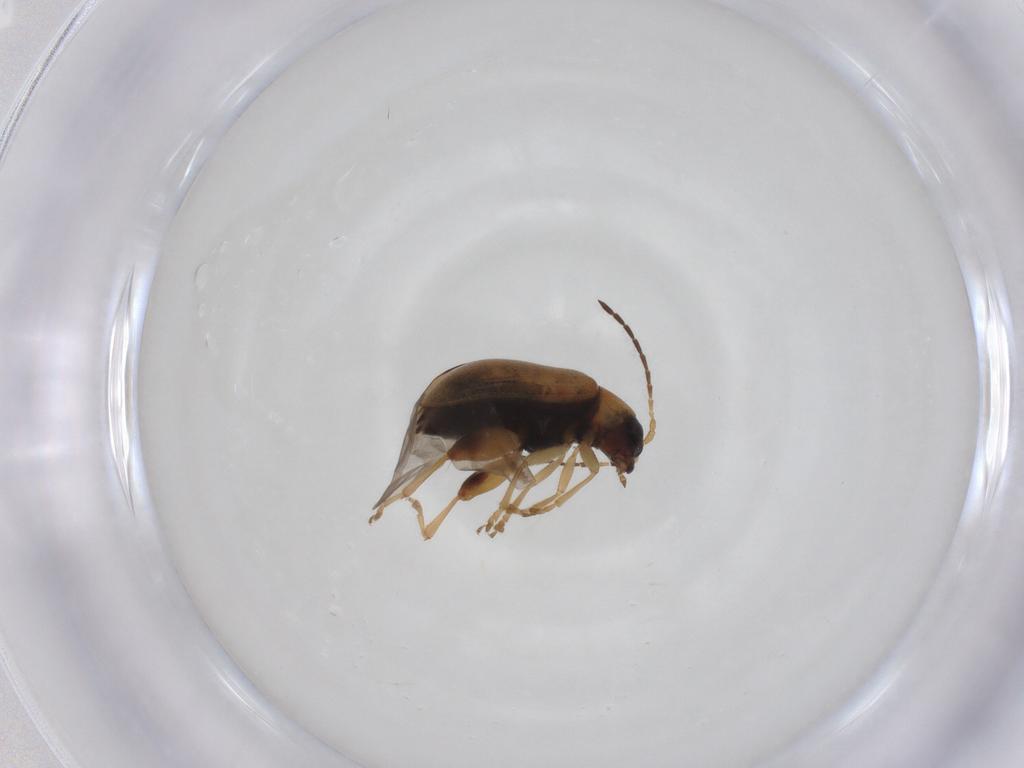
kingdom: Animalia
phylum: Arthropoda
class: Insecta
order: Coleoptera
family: Chrysomelidae
